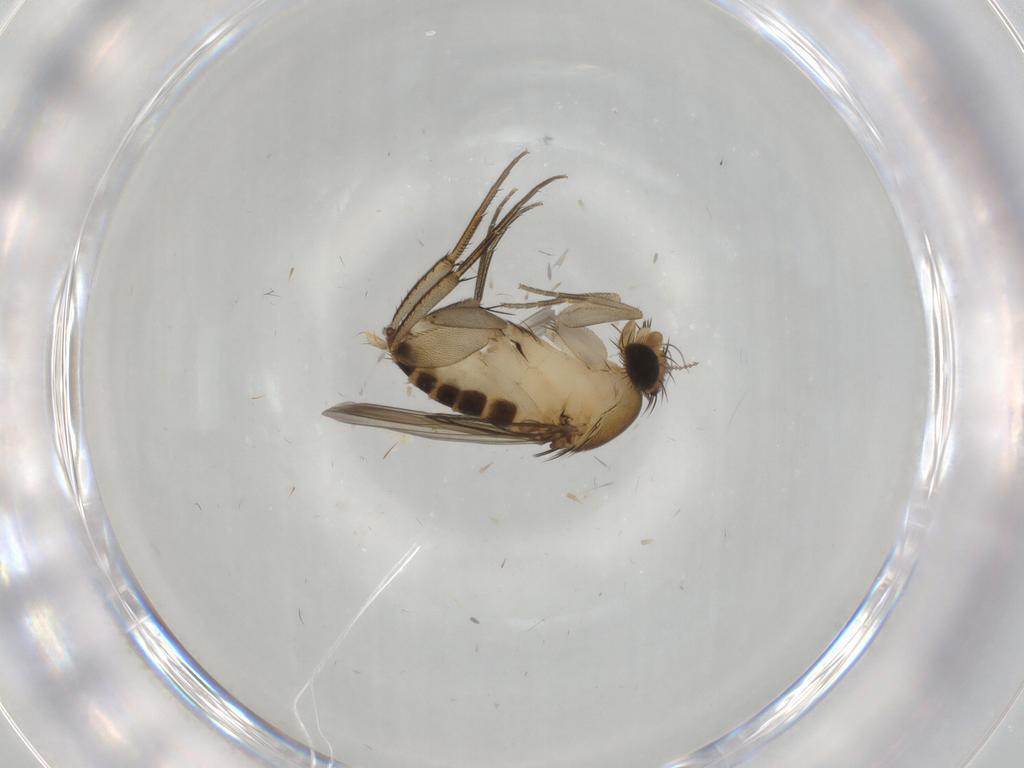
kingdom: Animalia
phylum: Arthropoda
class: Insecta
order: Diptera
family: Phoridae
